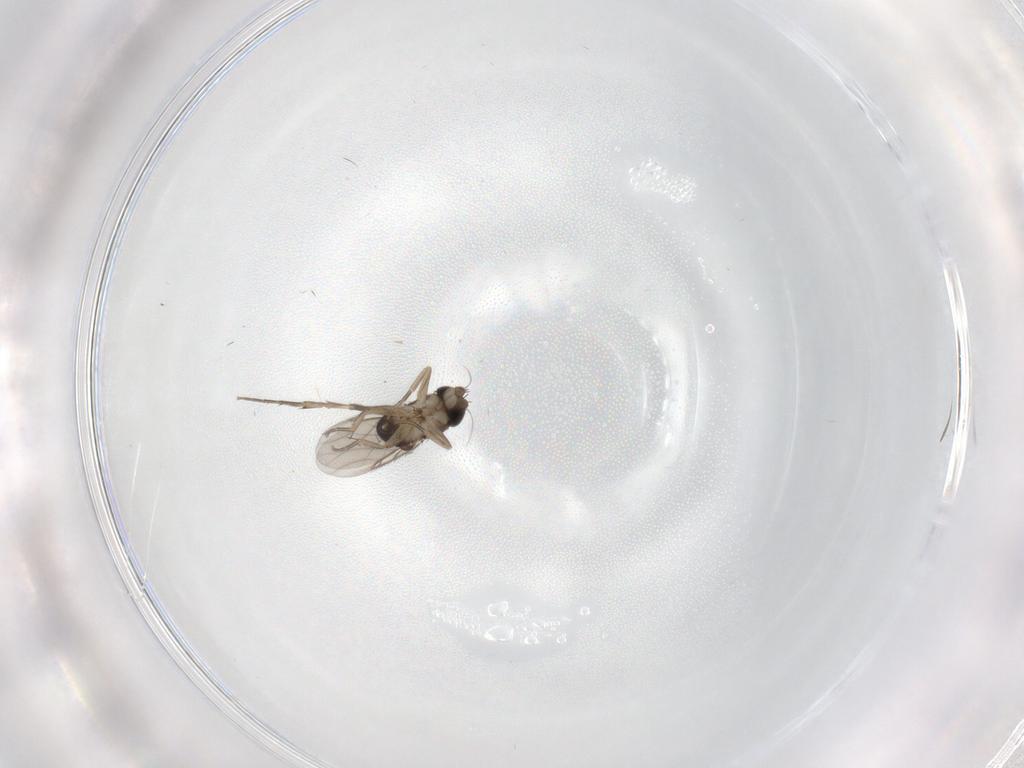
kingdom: Animalia
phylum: Arthropoda
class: Insecta
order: Diptera
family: Phoridae
